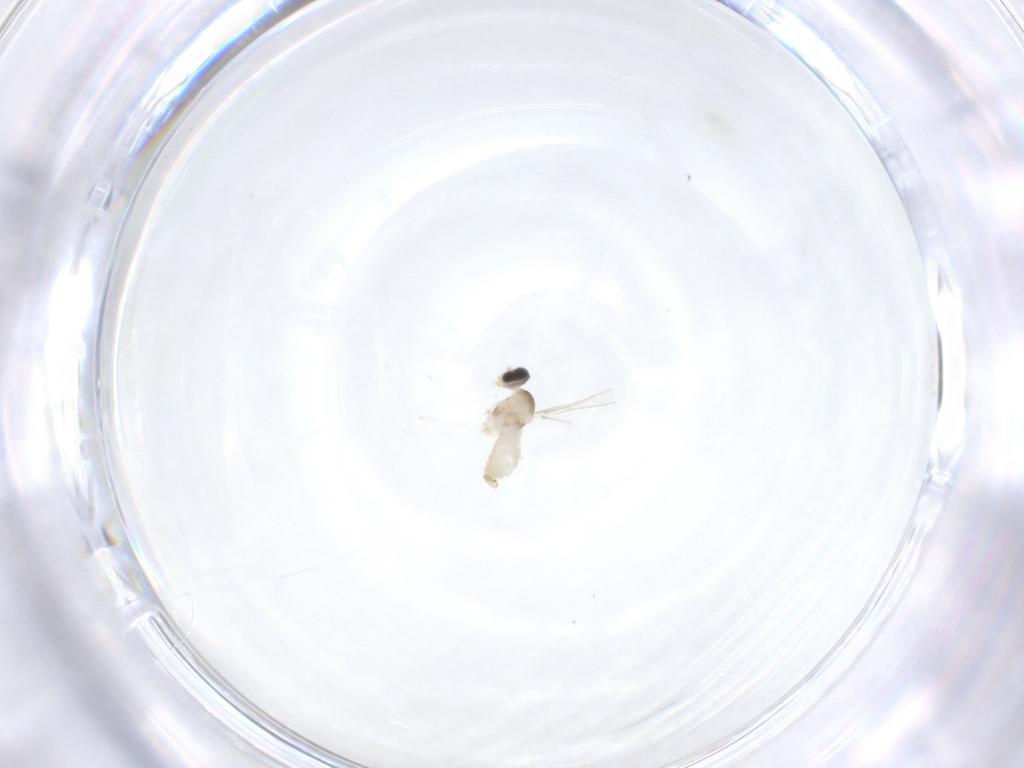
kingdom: Animalia
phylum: Arthropoda
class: Insecta
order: Diptera
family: Cecidomyiidae
